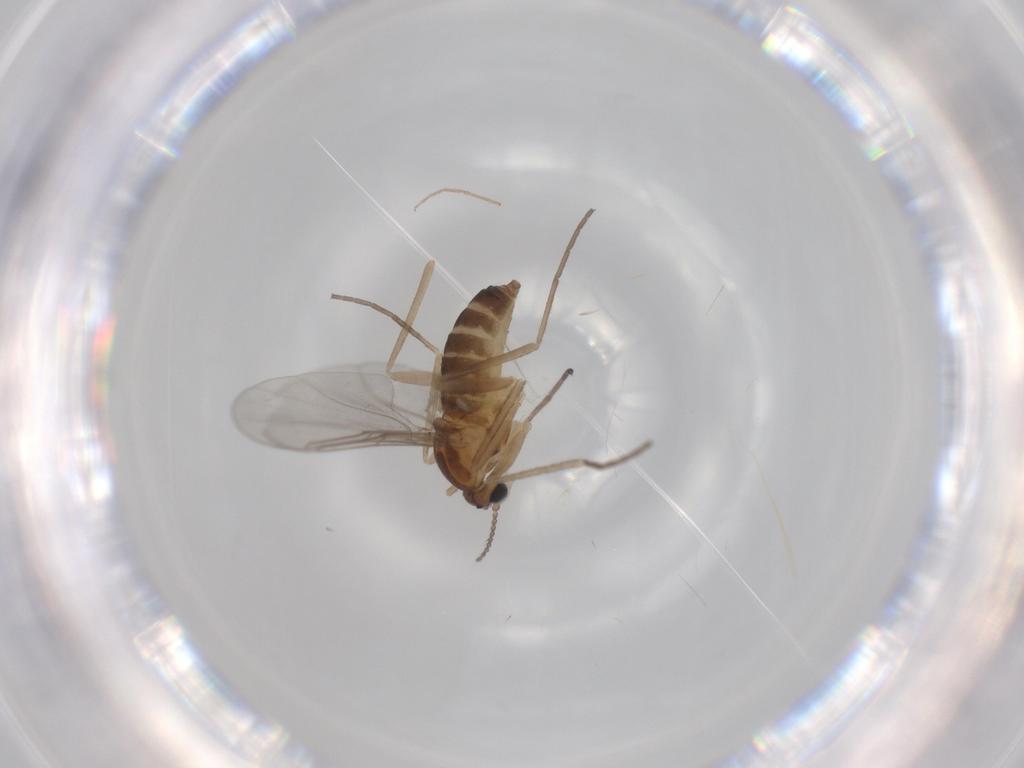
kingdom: Animalia
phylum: Arthropoda
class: Insecta
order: Diptera
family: Cecidomyiidae
